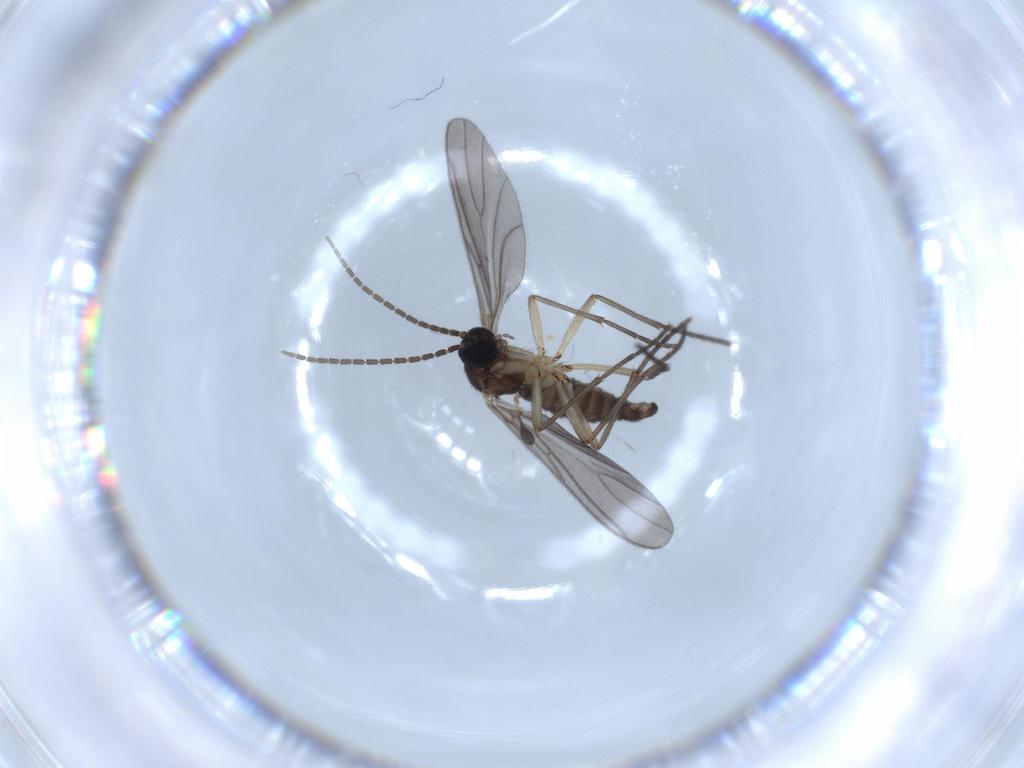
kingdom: Animalia
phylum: Arthropoda
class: Insecta
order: Diptera
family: Sciaridae
